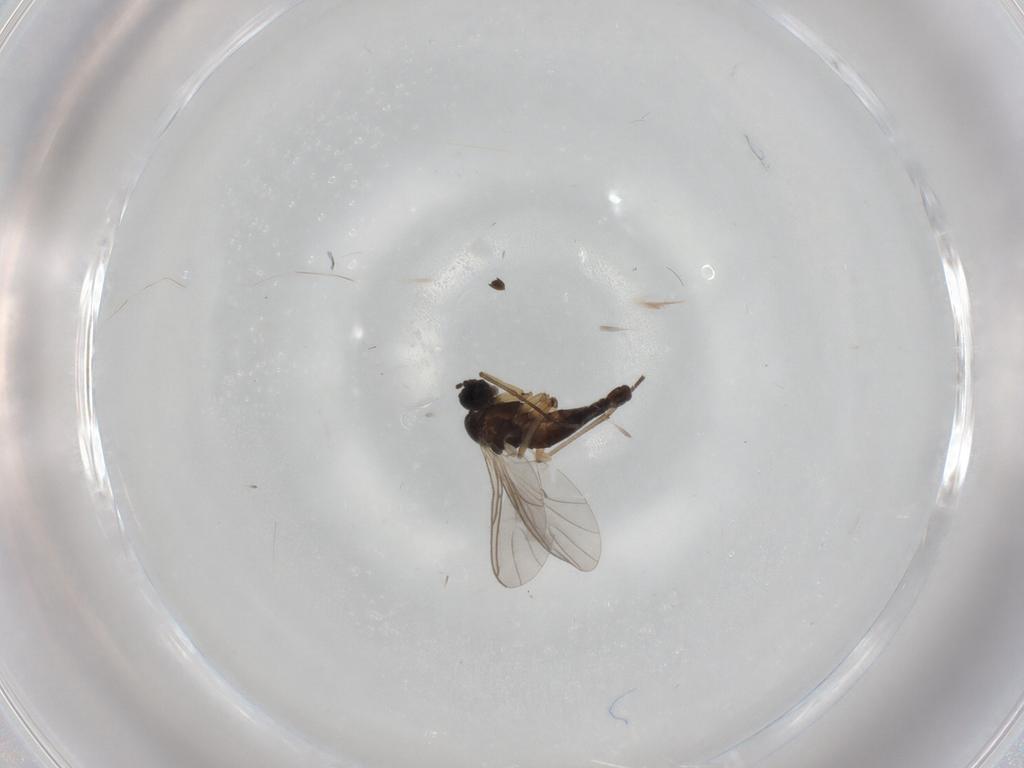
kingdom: Animalia
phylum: Arthropoda
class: Insecta
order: Diptera
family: Sciaridae
